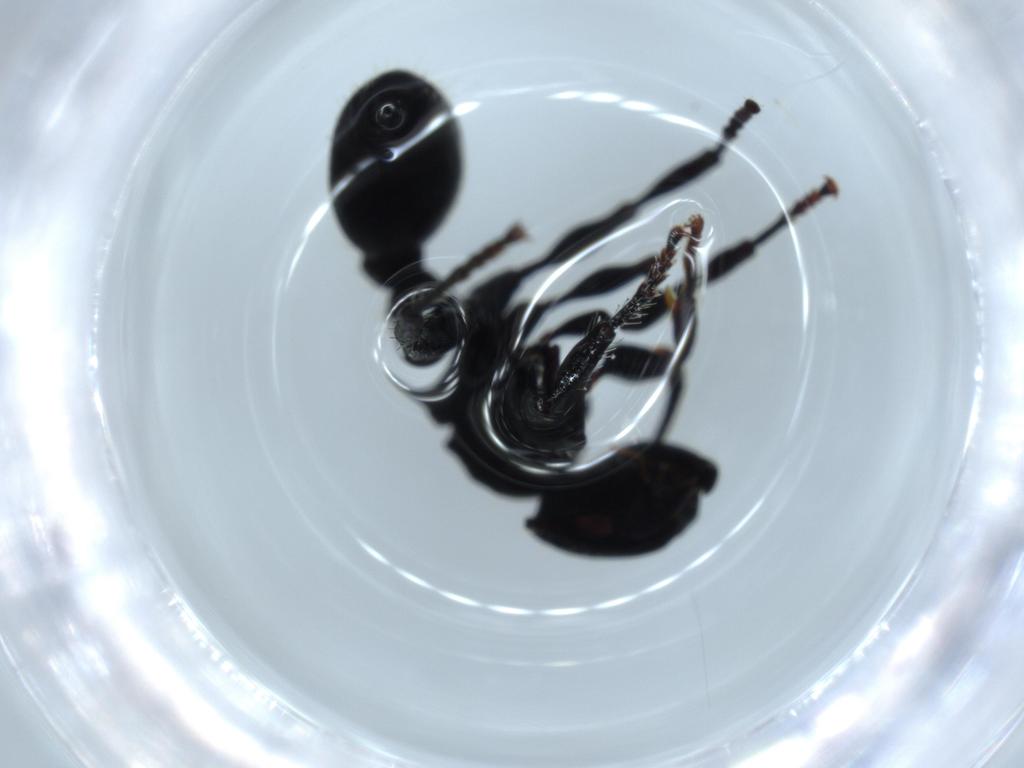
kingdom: Animalia
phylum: Arthropoda
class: Insecta
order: Hymenoptera
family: Formicidae
